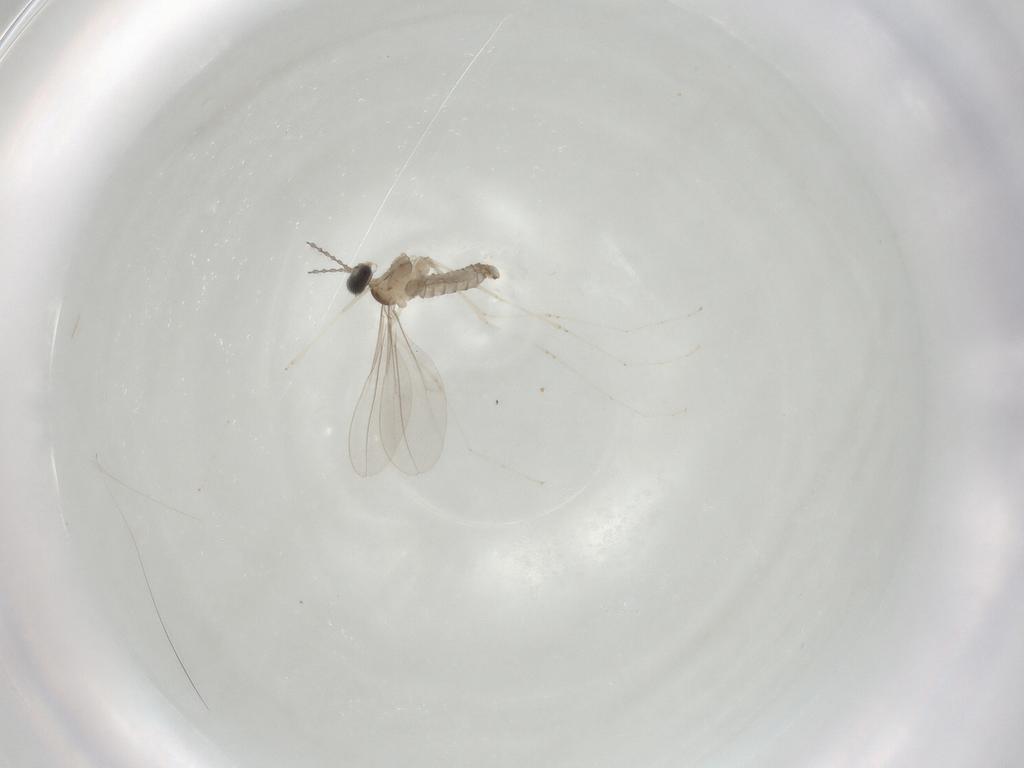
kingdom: Animalia
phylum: Arthropoda
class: Insecta
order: Diptera
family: Cecidomyiidae
